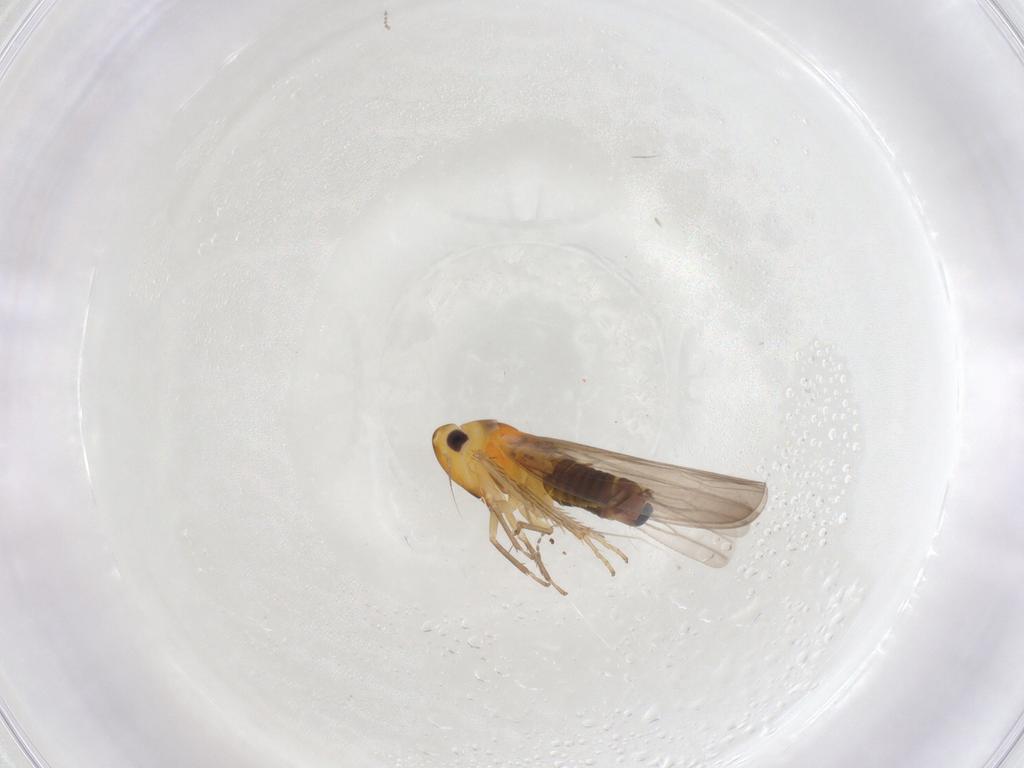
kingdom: Animalia
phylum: Arthropoda
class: Insecta
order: Hemiptera
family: Cicadellidae
